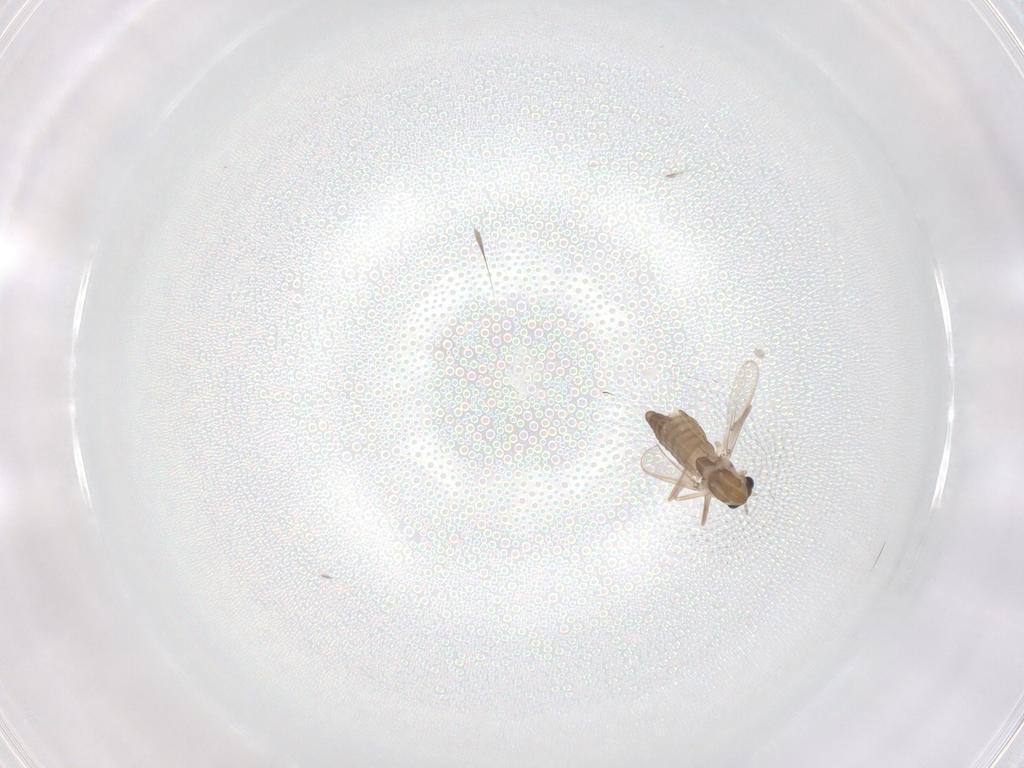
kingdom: Animalia
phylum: Arthropoda
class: Insecta
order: Diptera
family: Chironomidae
